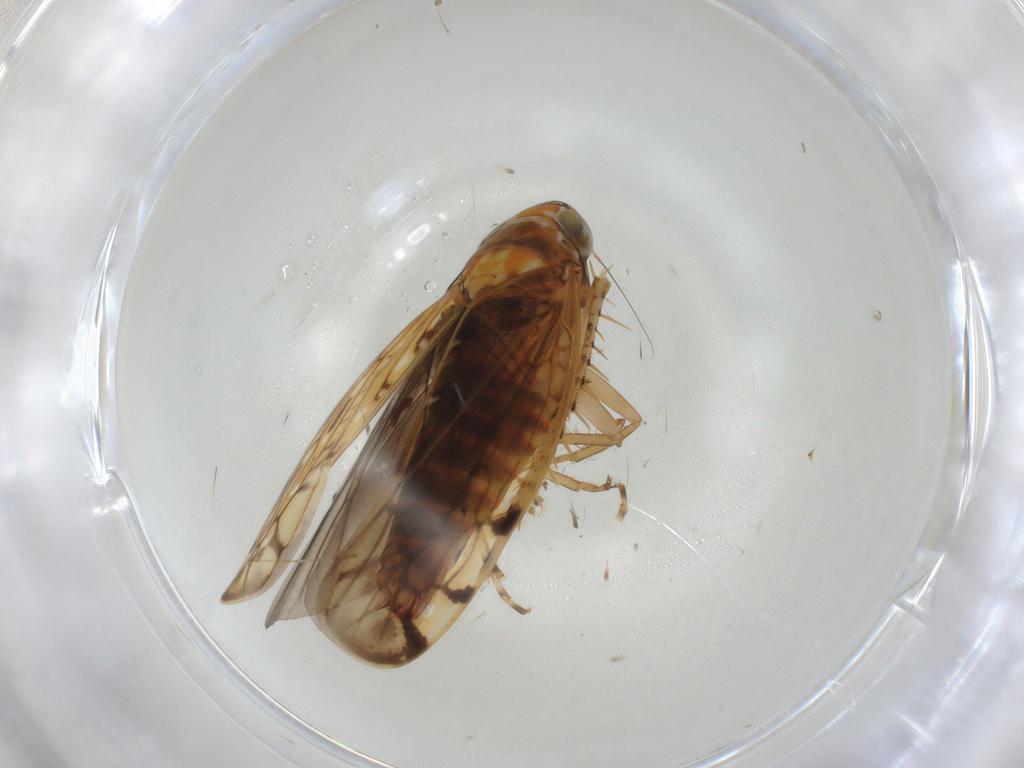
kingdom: Animalia
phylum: Arthropoda
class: Insecta
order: Hemiptera
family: Cicadellidae
